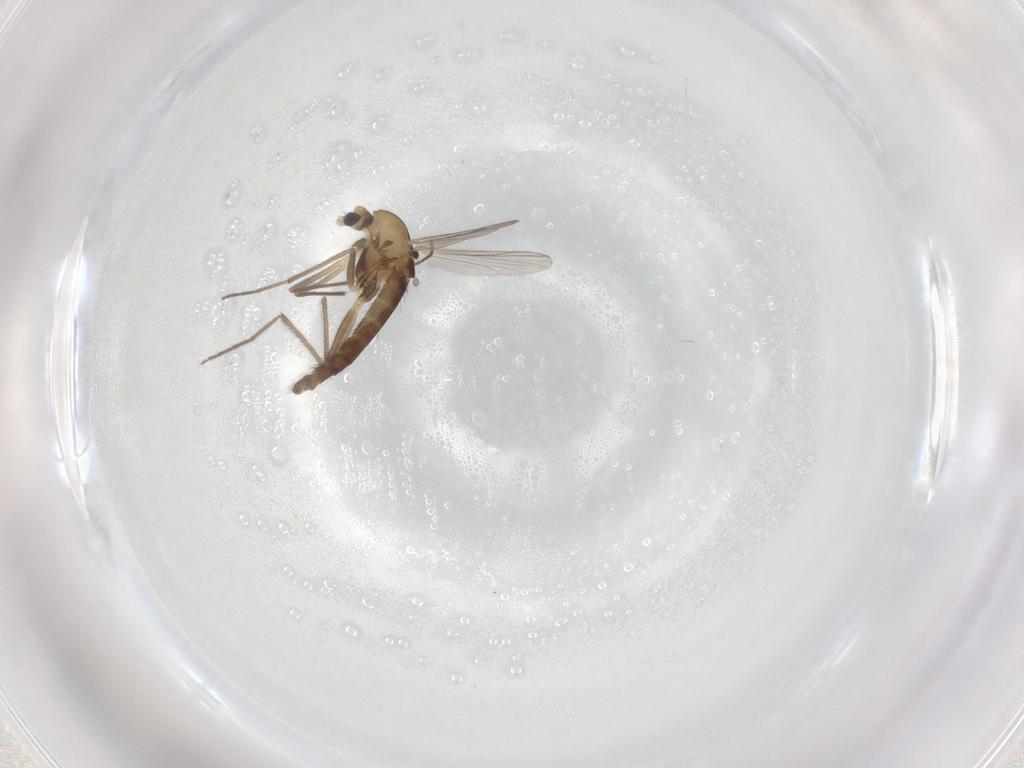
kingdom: Animalia
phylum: Arthropoda
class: Insecta
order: Diptera
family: Chironomidae
